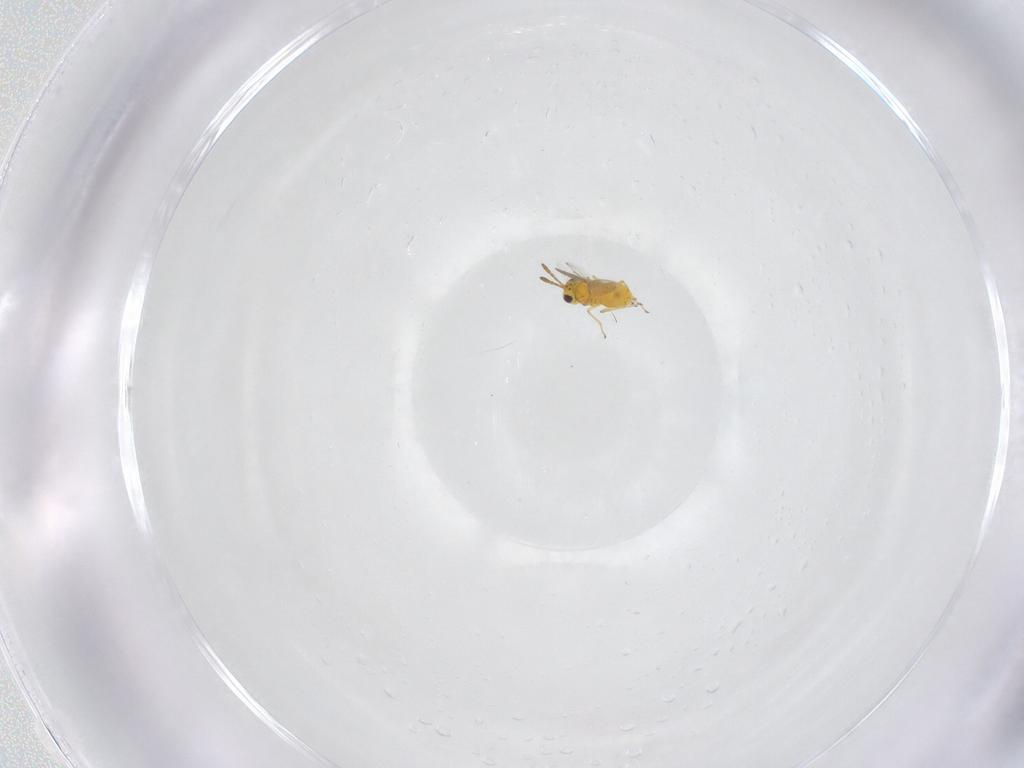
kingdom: Animalia
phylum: Arthropoda
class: Insecta
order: Hymenoptera
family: Aphelinidae
